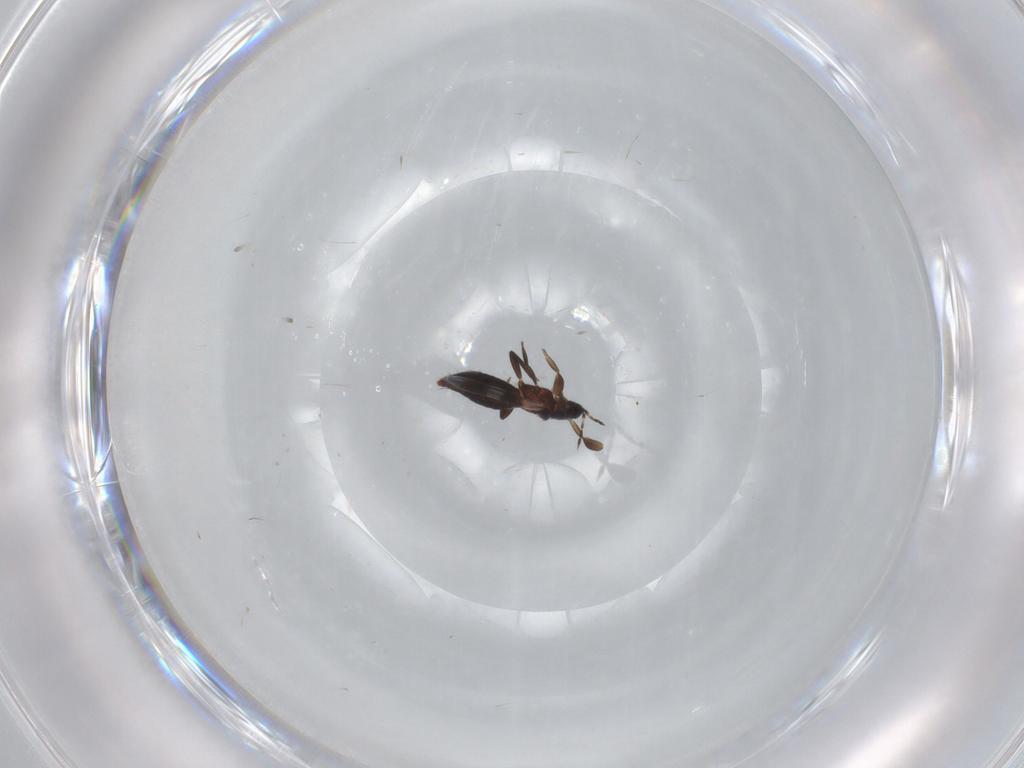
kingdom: Animalia
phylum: Arthropoda
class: Insecta
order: Thysanoptera
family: Aeolothripidae
